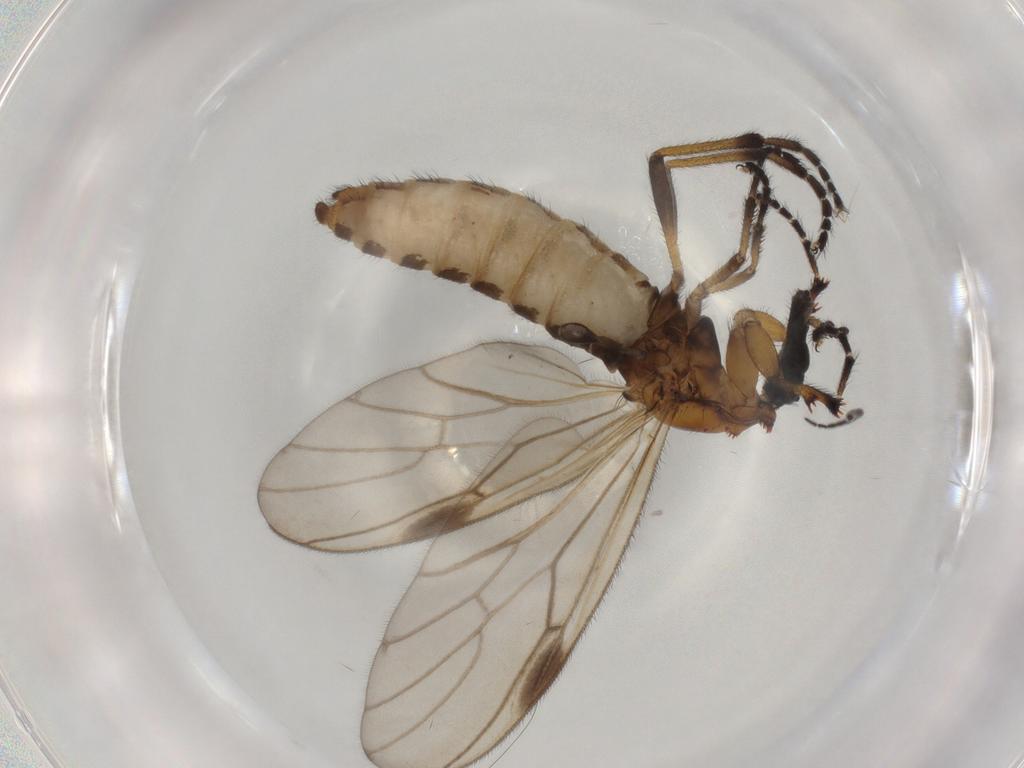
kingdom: Animalia
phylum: Arthropoda
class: Insecta
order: Diptera
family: Bibionidae
